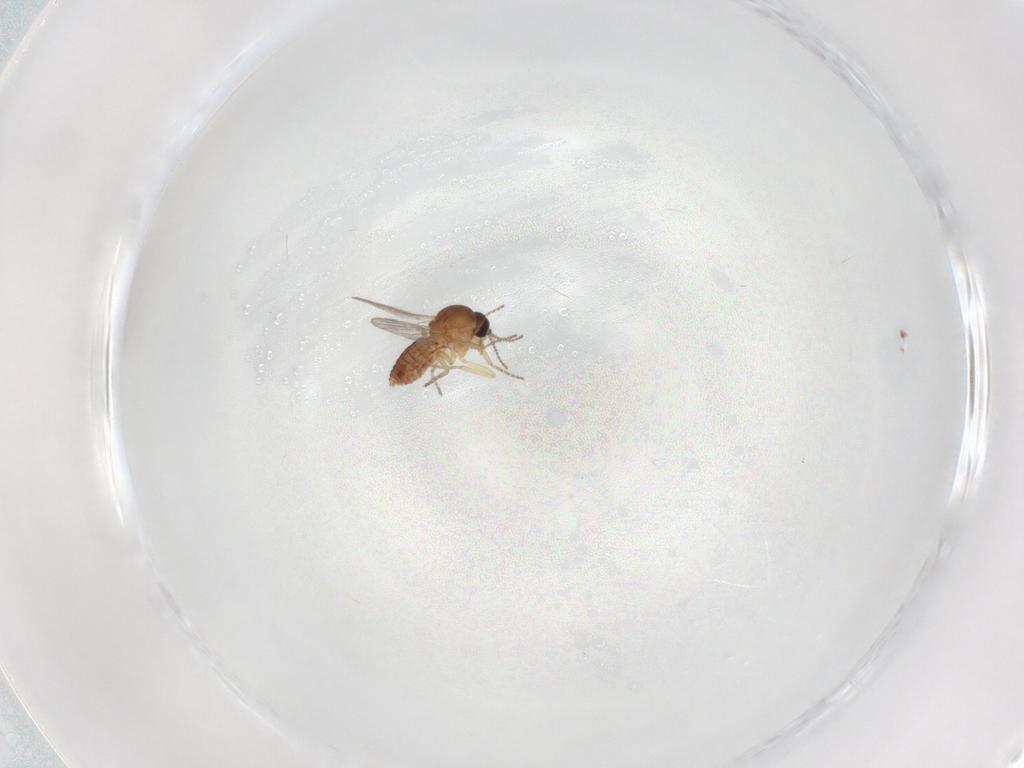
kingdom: Animalia
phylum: Arthropoda
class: Insecta
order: Diptera
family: Ceratopogonidae
